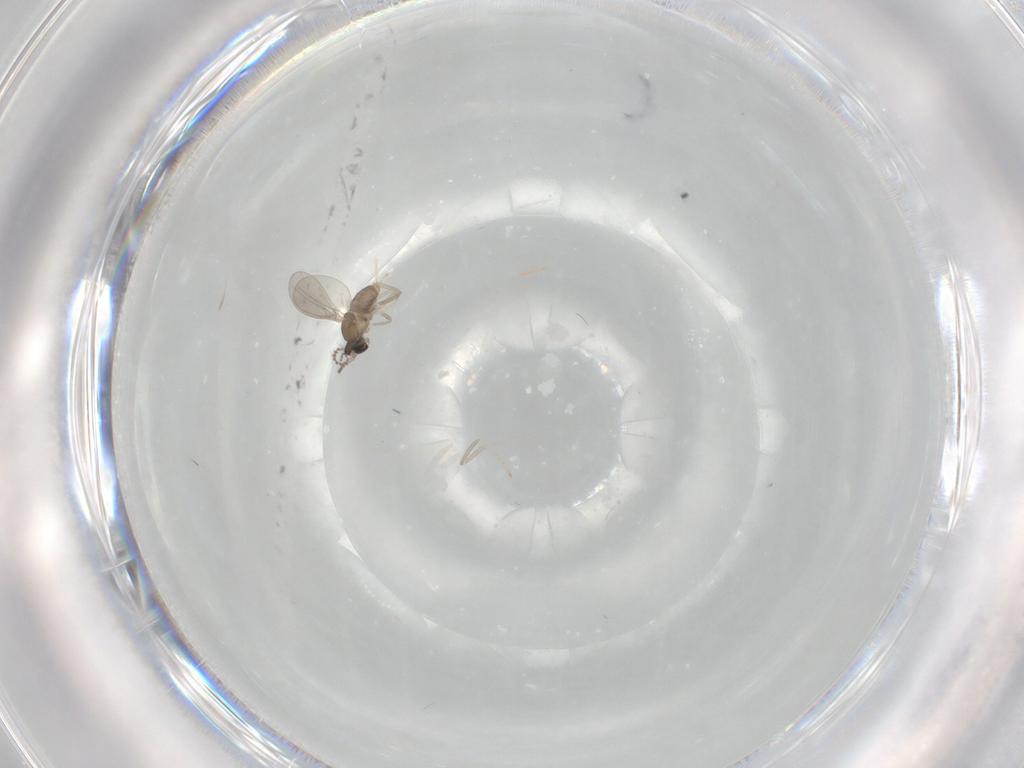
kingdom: Animalia
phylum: Arthropoda
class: Insecta
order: Diptera
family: Cecidomyiidae
